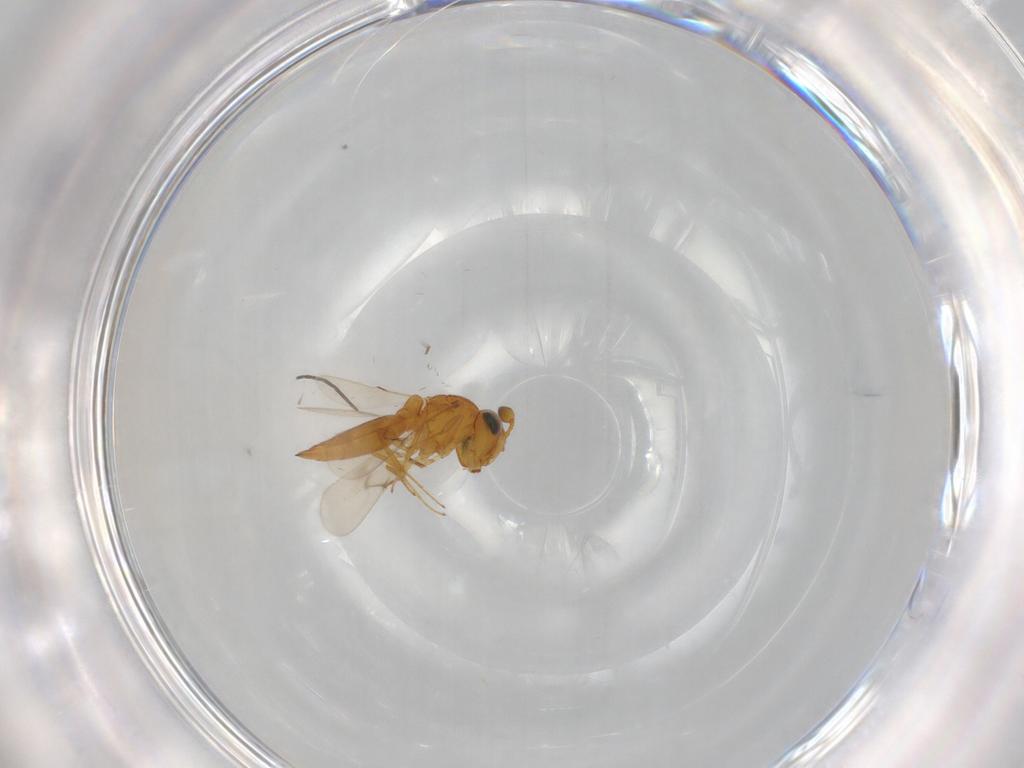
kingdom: Animalia
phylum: Arthropoda
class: Insecta
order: Hymenoptera
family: Scelionidae
